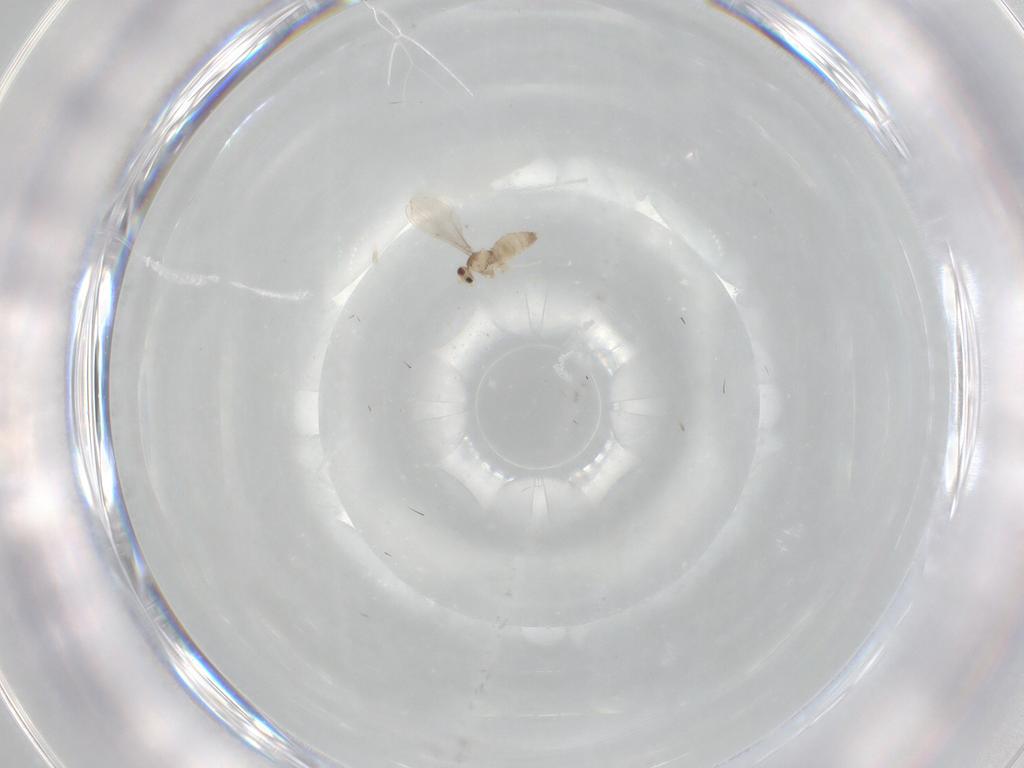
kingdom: Animalia
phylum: Arthropoda
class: Insecta
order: Diptera
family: Cecidomyiidae
